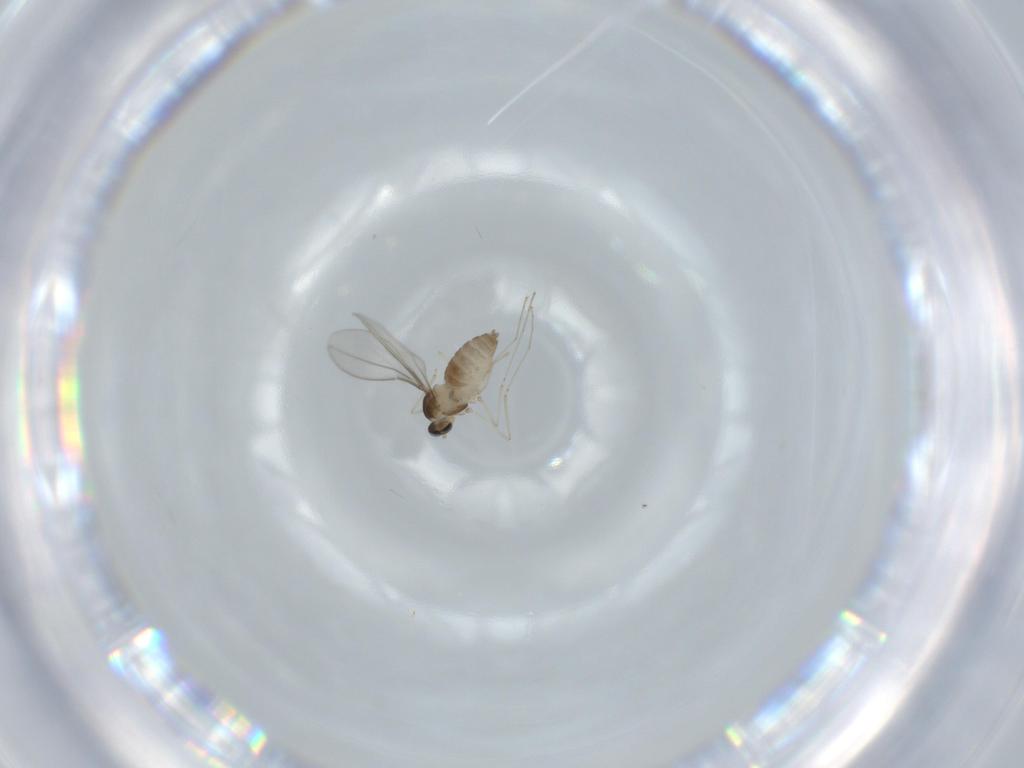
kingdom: Animalia
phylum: Arthropoda
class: Insecta
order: Diptera
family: Cecidomyiidae
